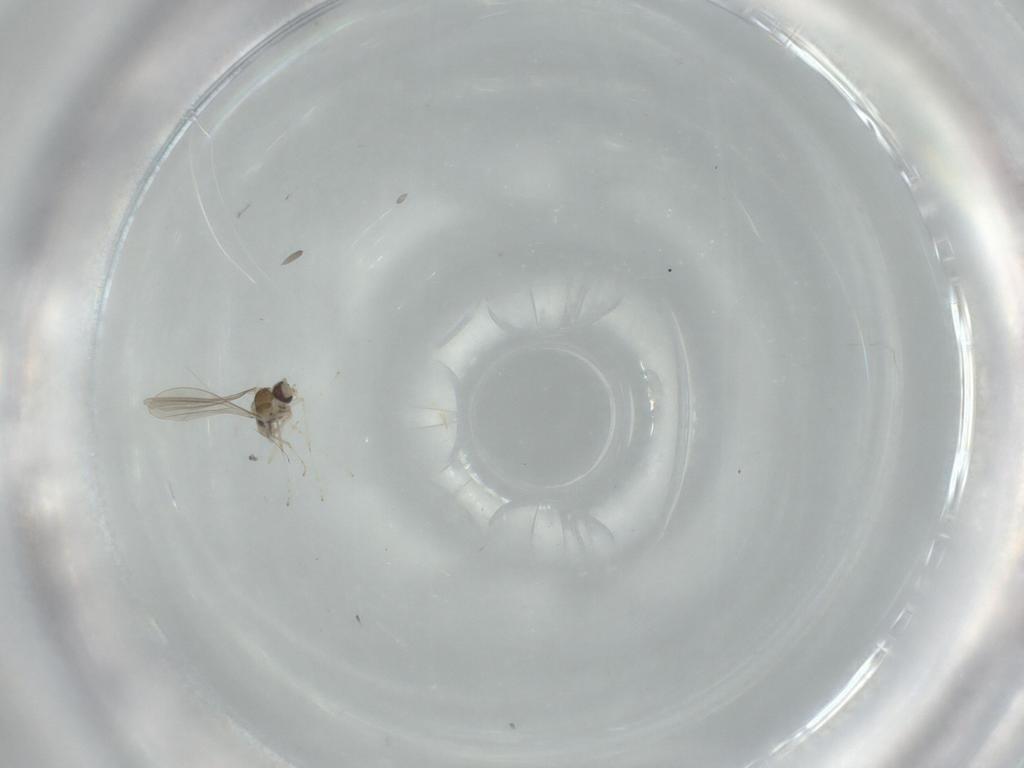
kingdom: Animalia
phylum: Arthropoda
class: Insecta
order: Diptera
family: Cecidomyiidae
